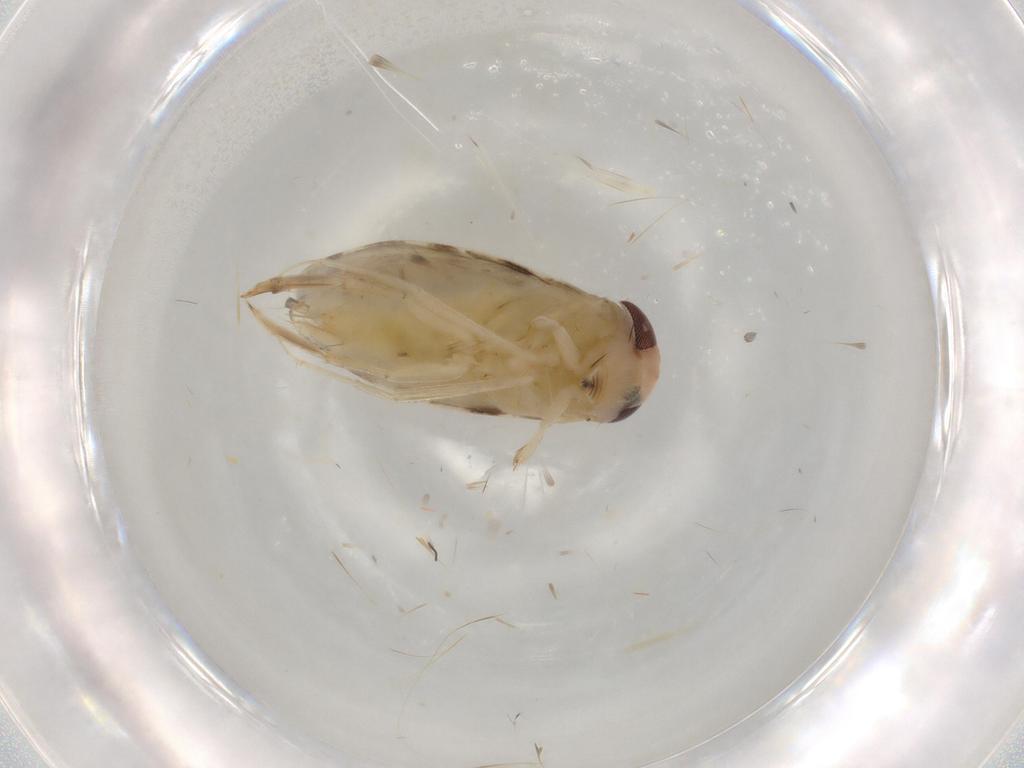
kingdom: Animalia
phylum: Arthropoda
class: Insecta
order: Hemiptera
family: Corixidae
